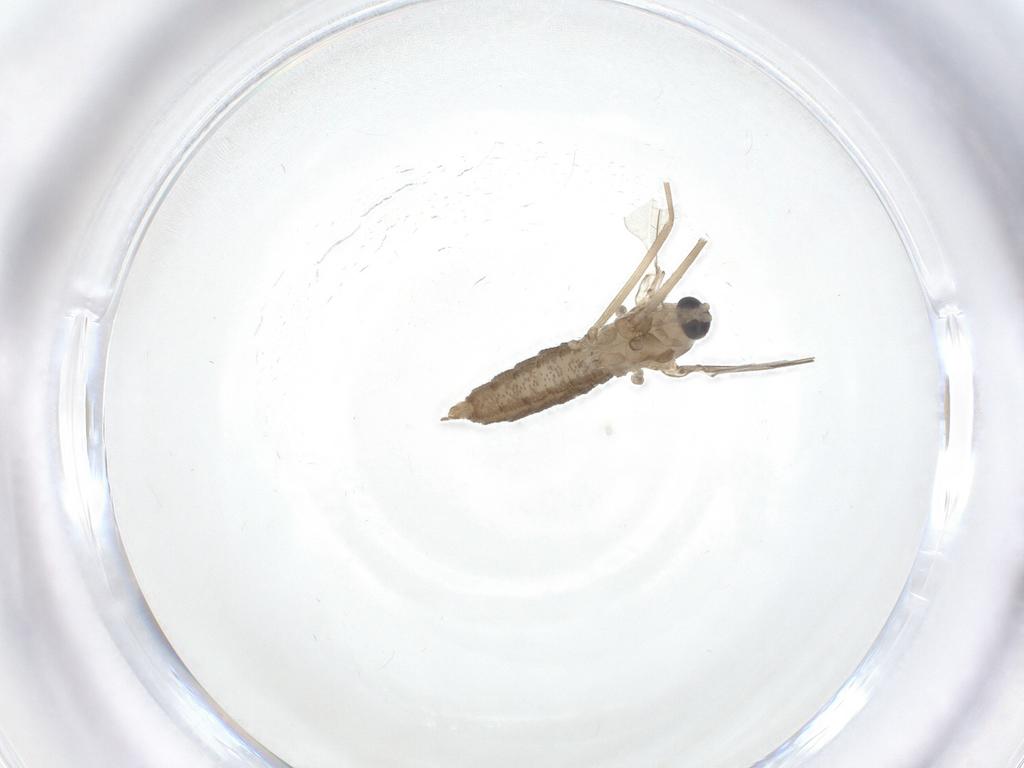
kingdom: Animalia
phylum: Arthropoda
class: Insecta
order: Diptera
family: Cecidomyiidae
